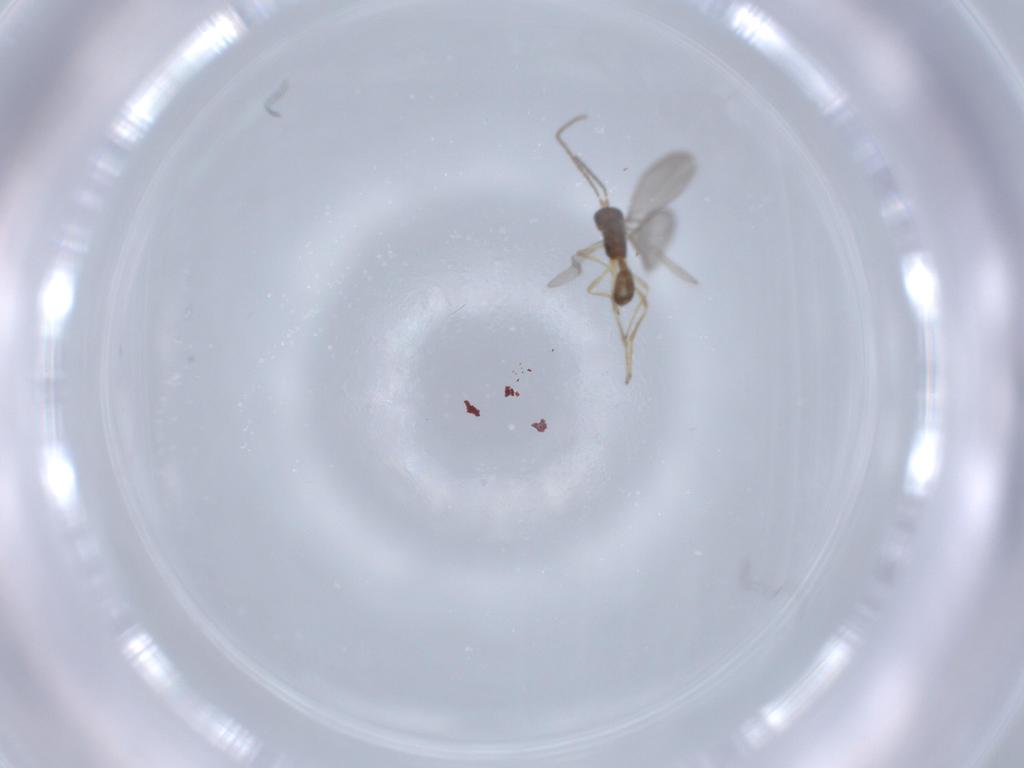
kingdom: Animalia
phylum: Arthropoda
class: Insecta
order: Hymenoptera
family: Braconidae
